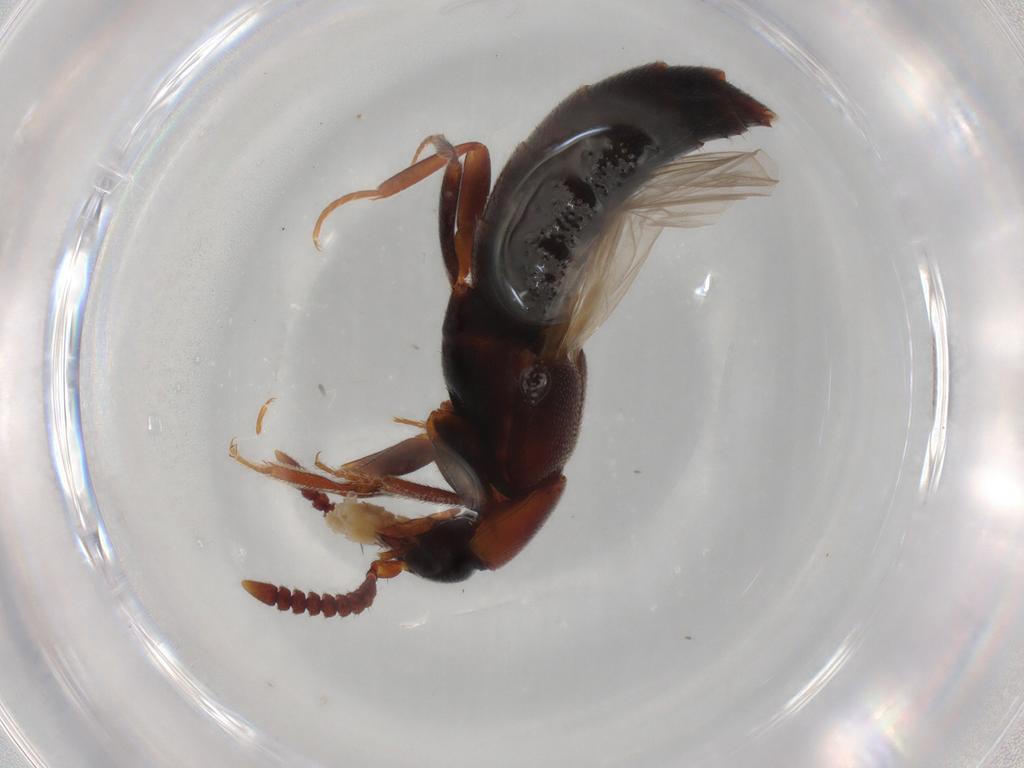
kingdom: Animalia
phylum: Arthropoda
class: Insecta
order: Coleoptera
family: Staphylinidae
